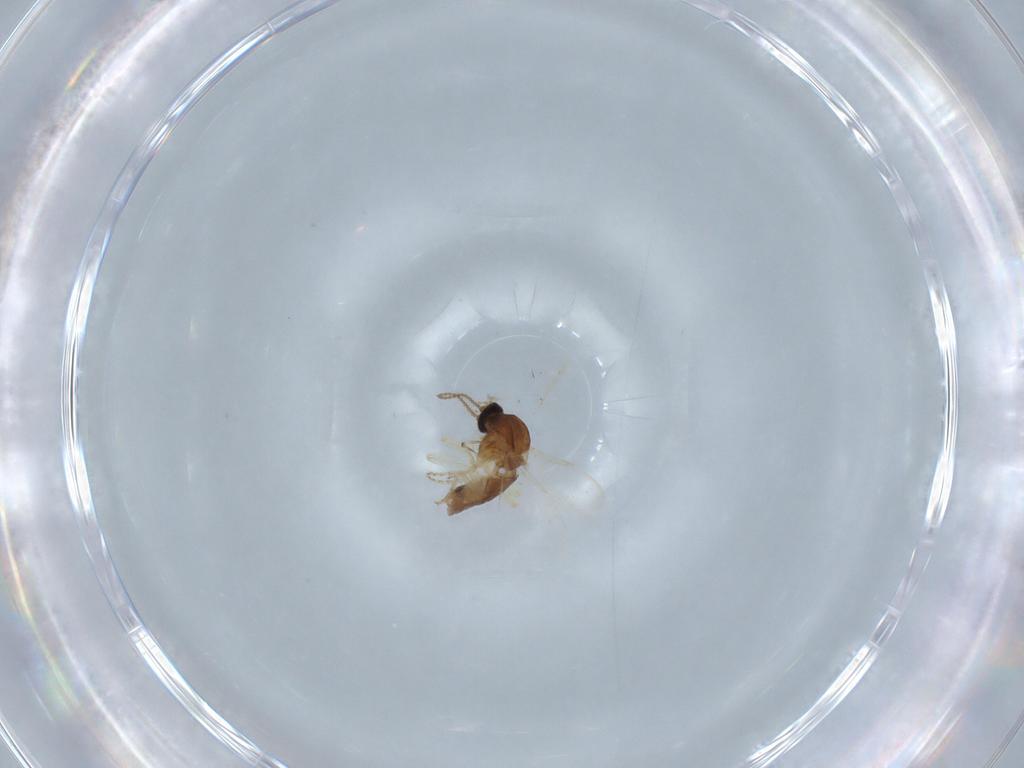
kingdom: Animalia
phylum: Arthropoda
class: Insecta
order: Diptera
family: Ceratopogonidae
